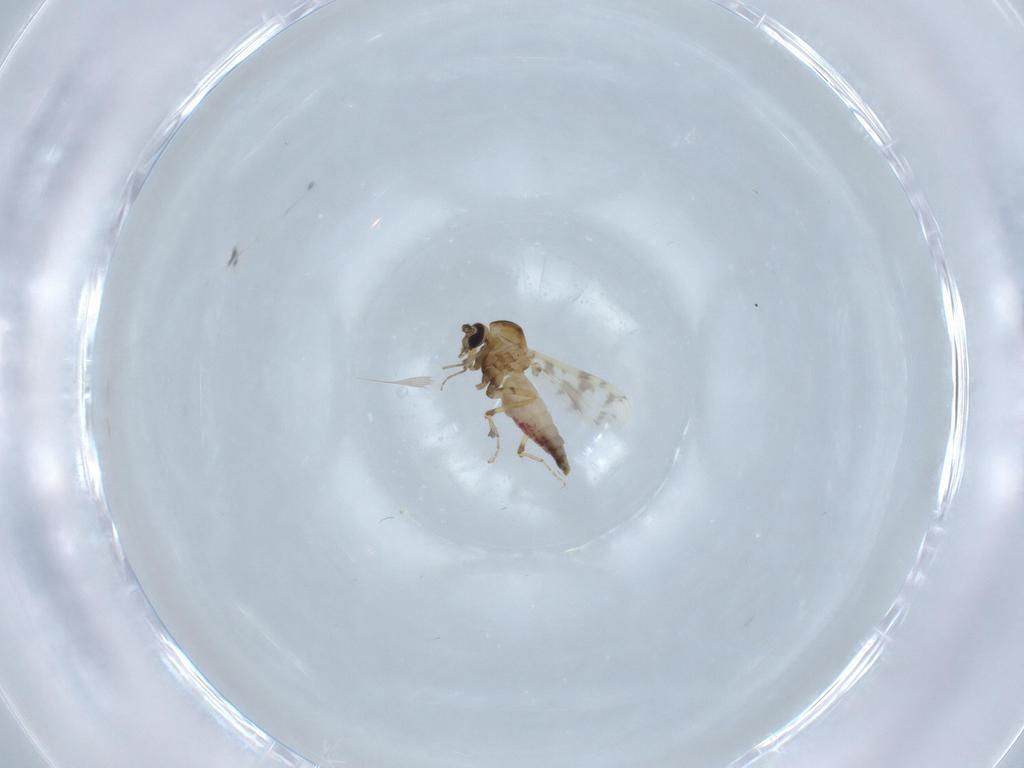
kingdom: Animalia
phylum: Arthropoda
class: Insecta
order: Diptera
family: Ceratopogonidae
